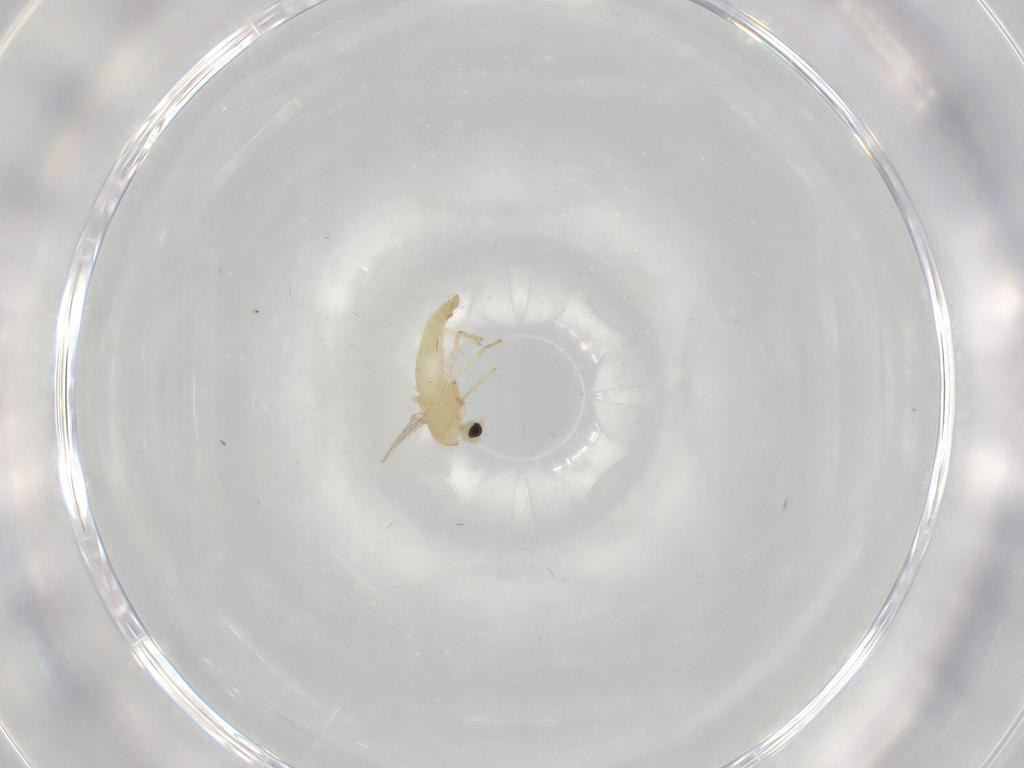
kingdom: Animalia
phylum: Arthropoda
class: Insecta
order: Diptera
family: Chironomidae
